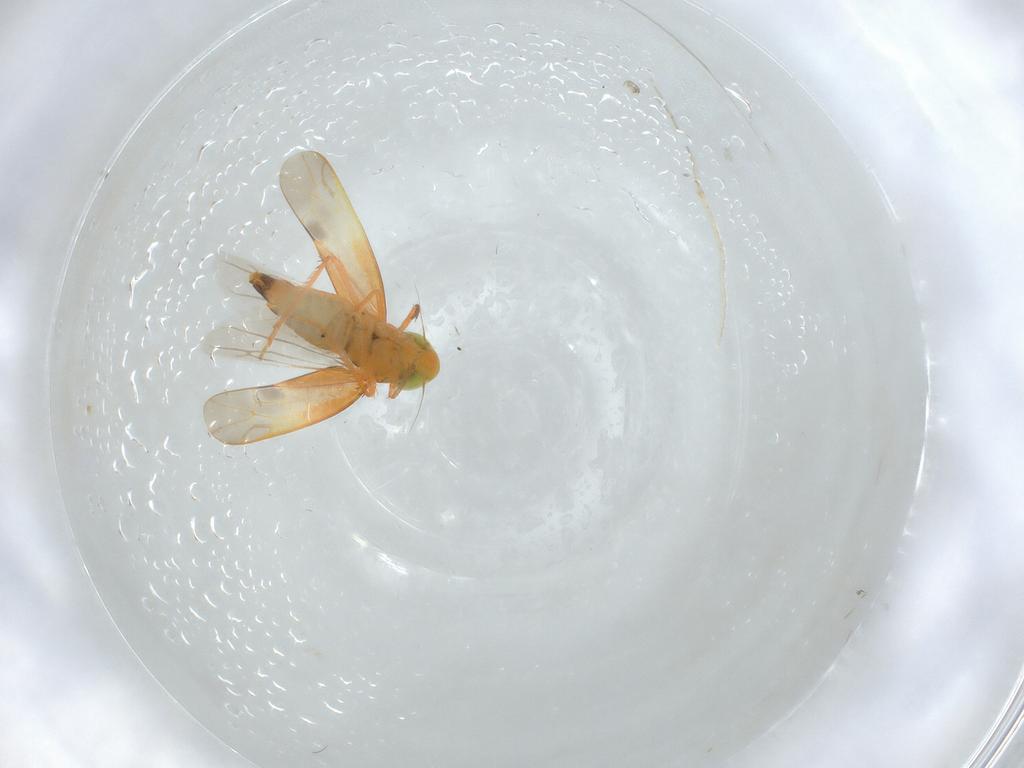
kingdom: Animalia
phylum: Arthropoda
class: Insecta
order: Hemiptera
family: Cicadellidae
